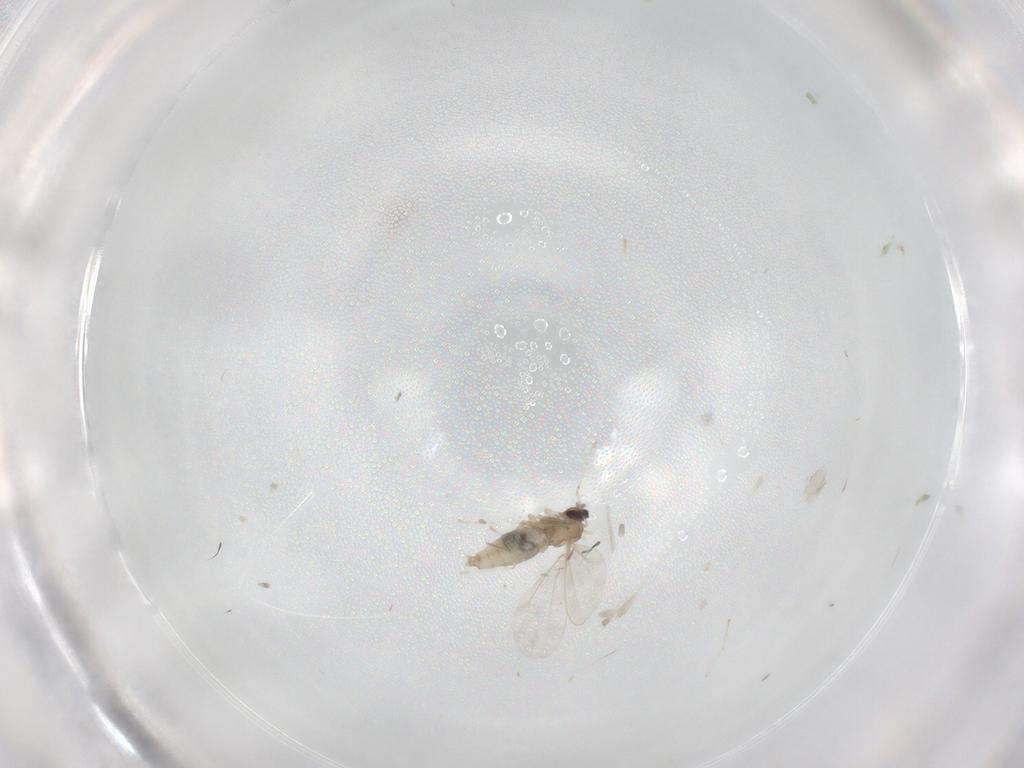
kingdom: Animalia
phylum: Arthropoda
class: Insecta
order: Diptera
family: Cecidomyiidae
